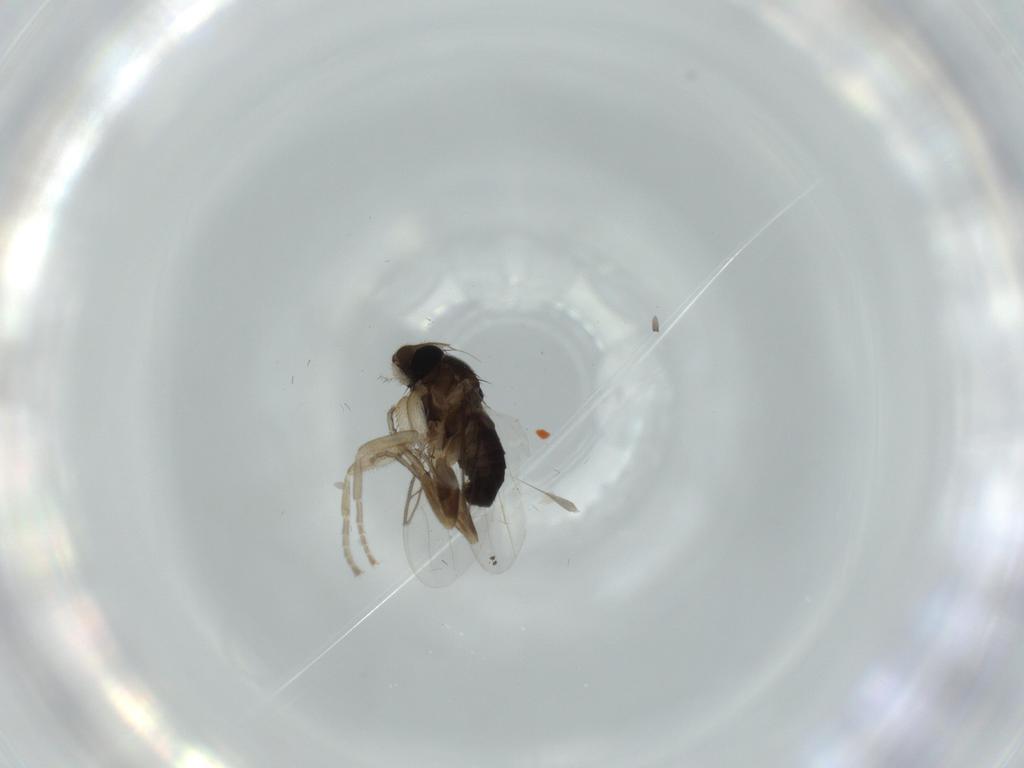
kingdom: Animalia
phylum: Arthropoda
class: Insecta
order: Diptera
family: Phoridae
